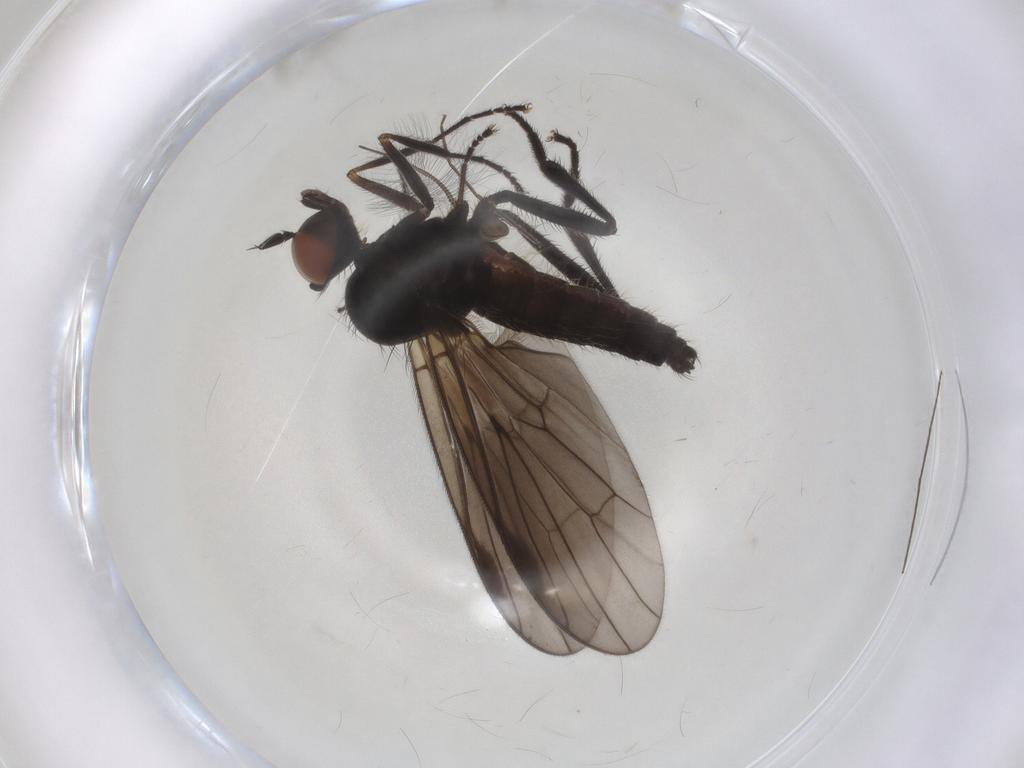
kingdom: Animalia
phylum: Arthropoda
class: Insecta
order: Diptera
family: Hybotidae
